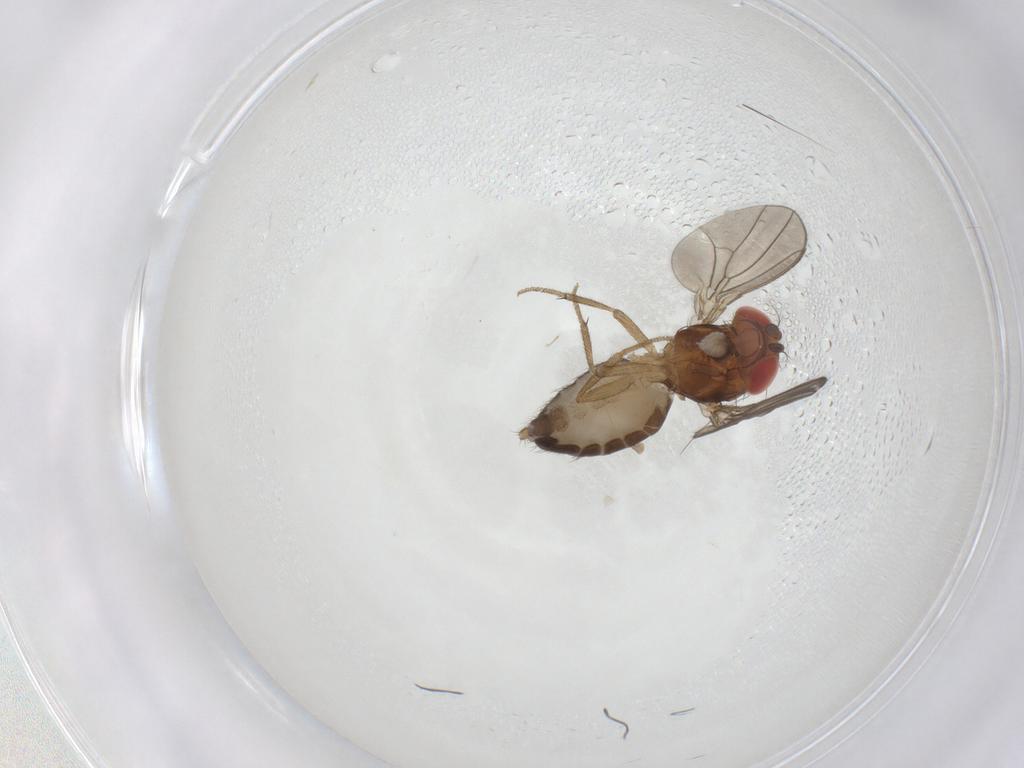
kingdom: Animalia
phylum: Arthropoda
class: Insecta
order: Diptera
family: Drosophilidae
